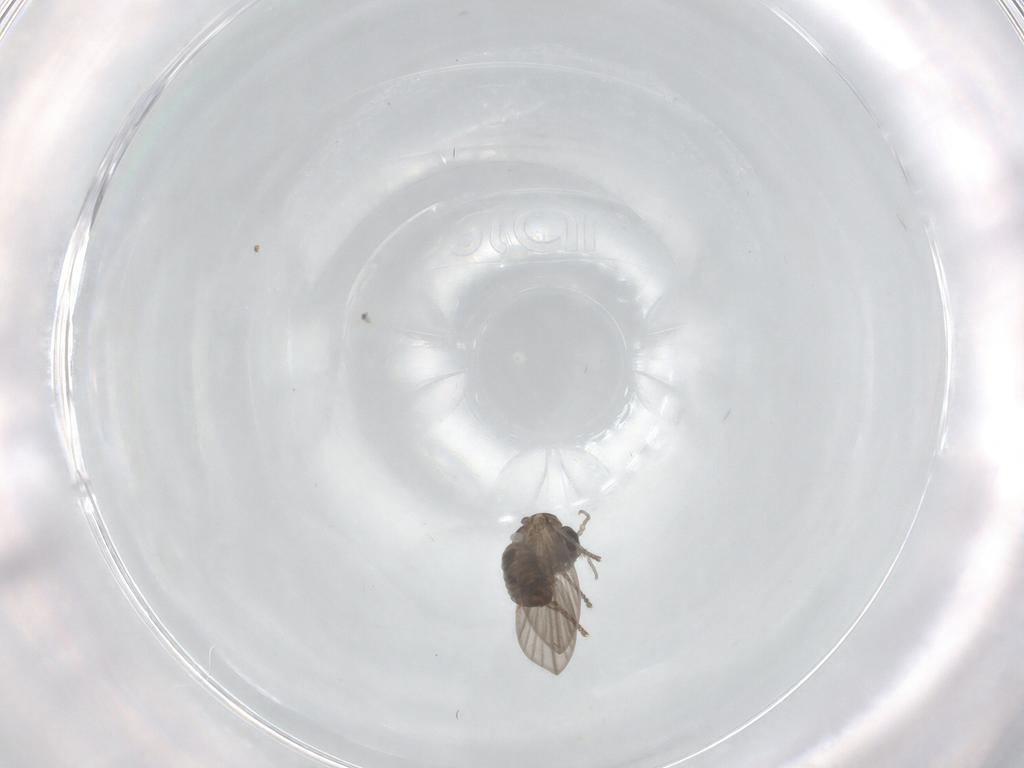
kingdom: Animalia
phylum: Arthropoda
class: Insecta
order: Diptera
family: Psychodidae
